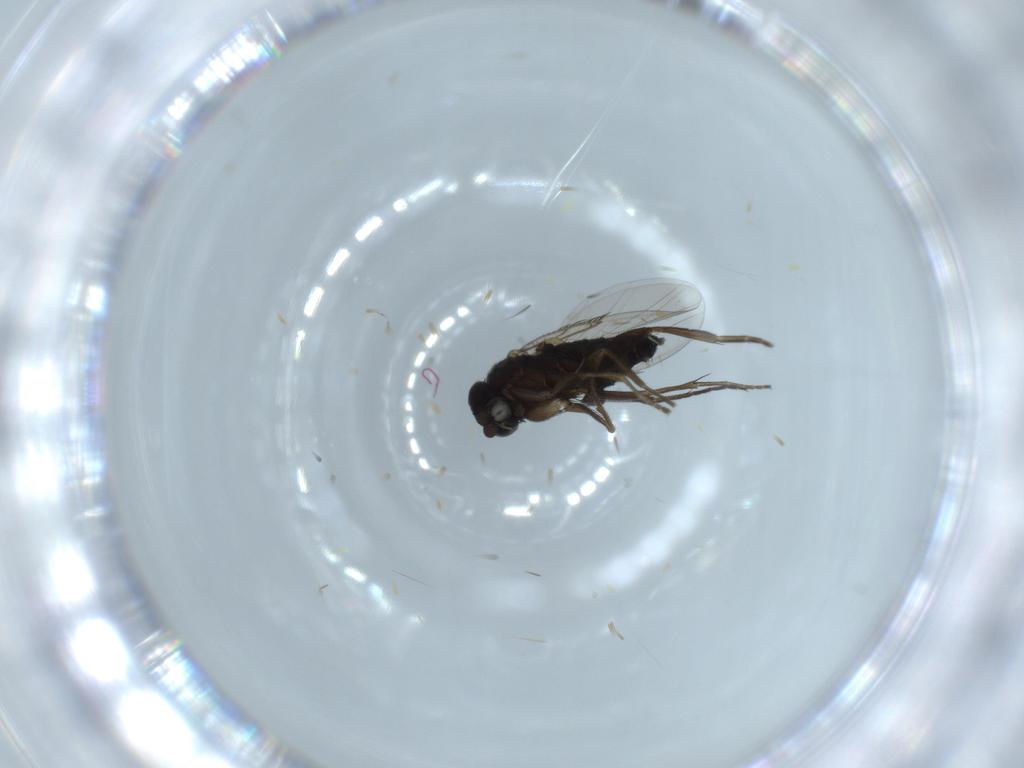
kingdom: Animalia
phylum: Arthropoda
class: Insecta
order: Diptera
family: Phoridae
